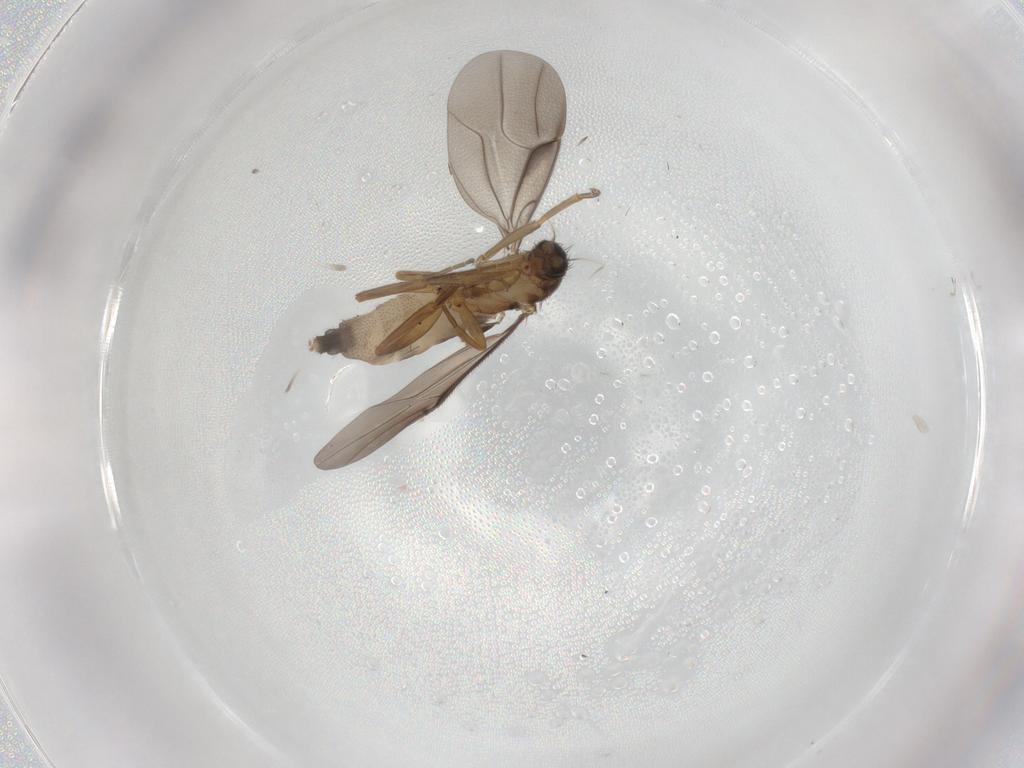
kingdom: Animalia
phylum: Arthropoda
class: Insecta
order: Diptera
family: Phoridae
